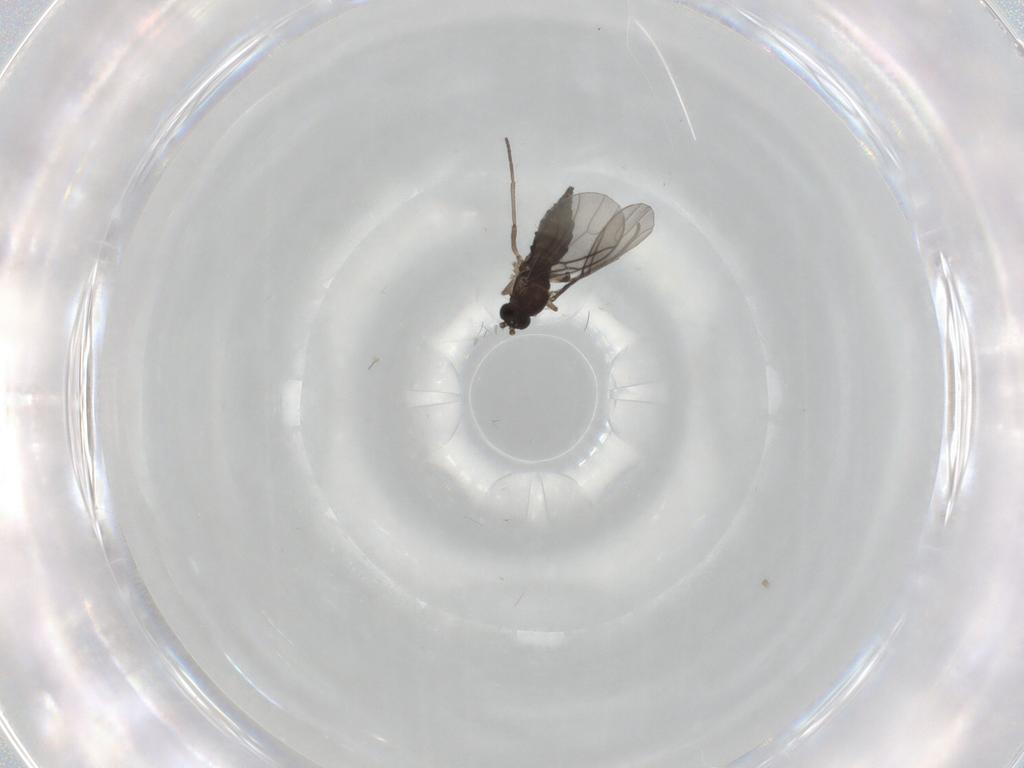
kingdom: Animalia
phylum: Arthropoda
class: Insecta
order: Diptera
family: Sciaridae
